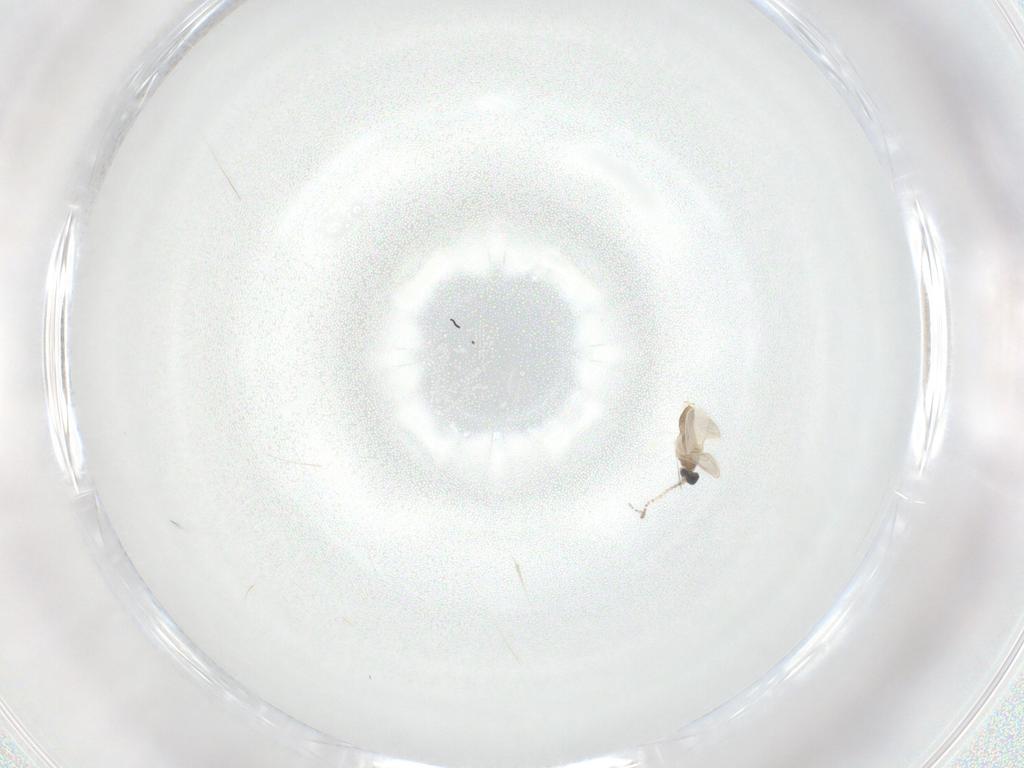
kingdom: Animalia
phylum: Arthropoda
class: Insecta
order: Diptera
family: Cecidomyiidae
